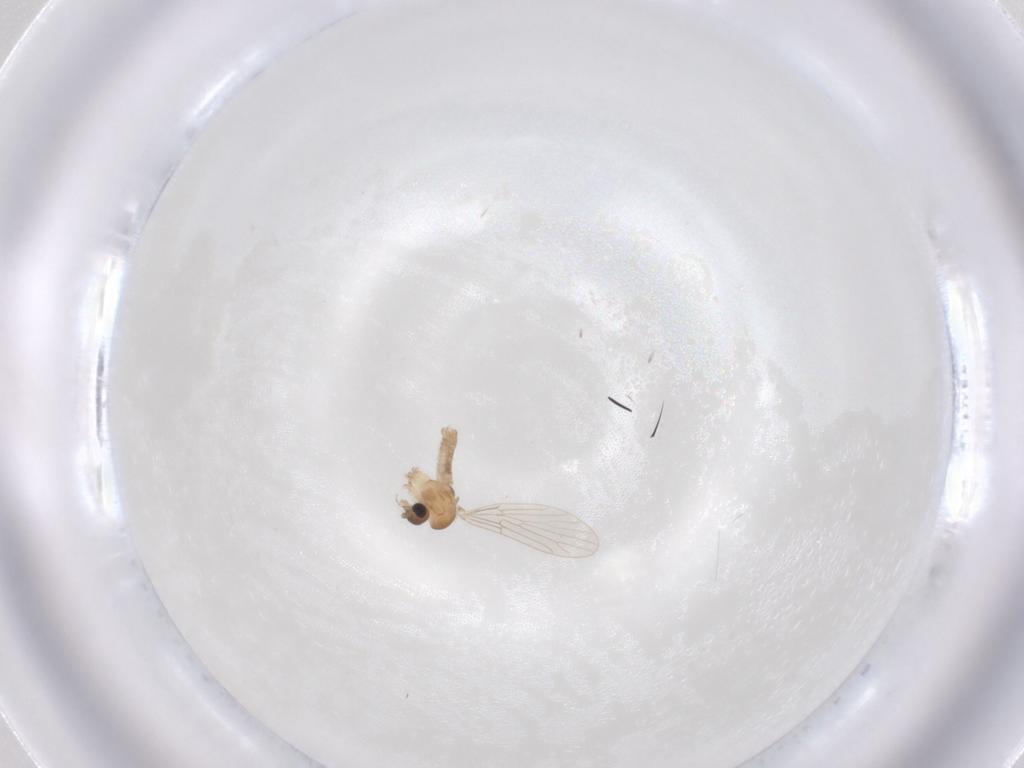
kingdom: Animalia
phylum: Arthropoda
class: Insecta
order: Diptera
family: Psychodidae
